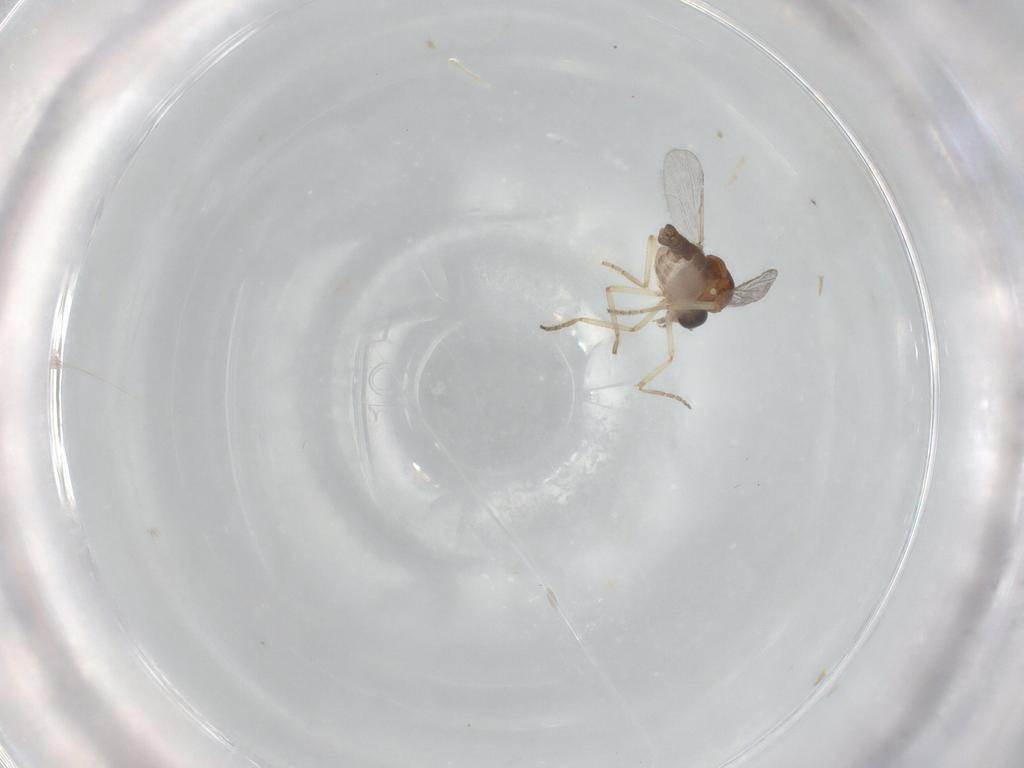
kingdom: Animalia
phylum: Arthropoda
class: Insecta
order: Diptera
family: Ceratopogonidae
